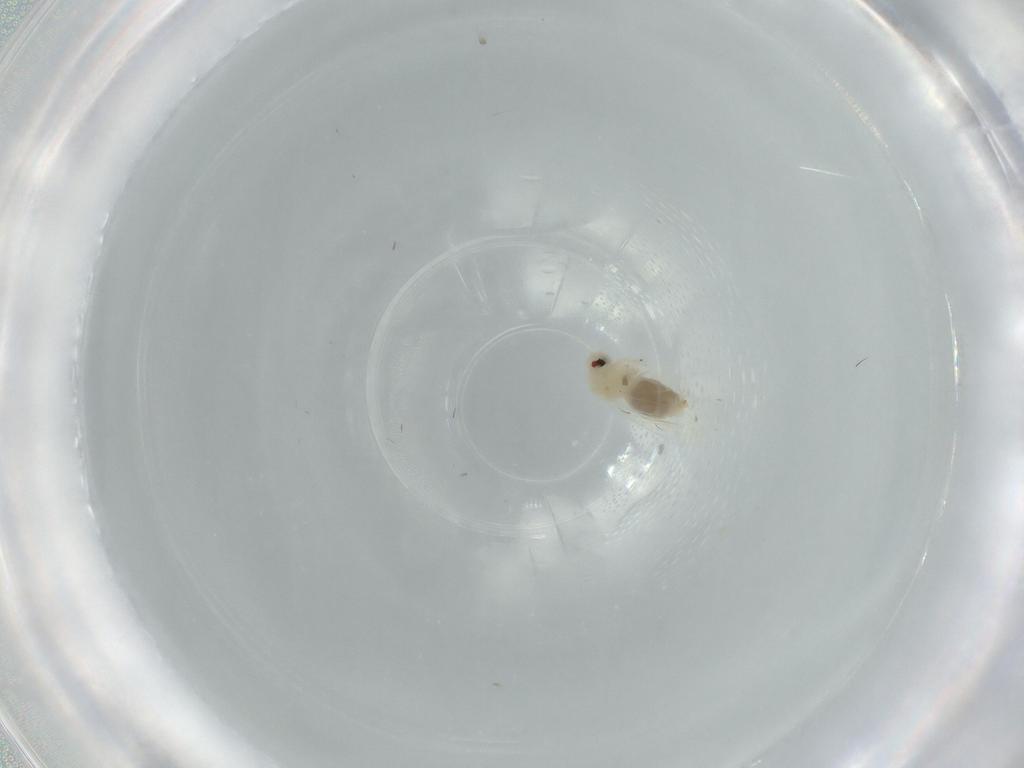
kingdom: Animalia
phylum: Arthropoda
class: Insecta
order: Hemiptera
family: Aleyrodidae
